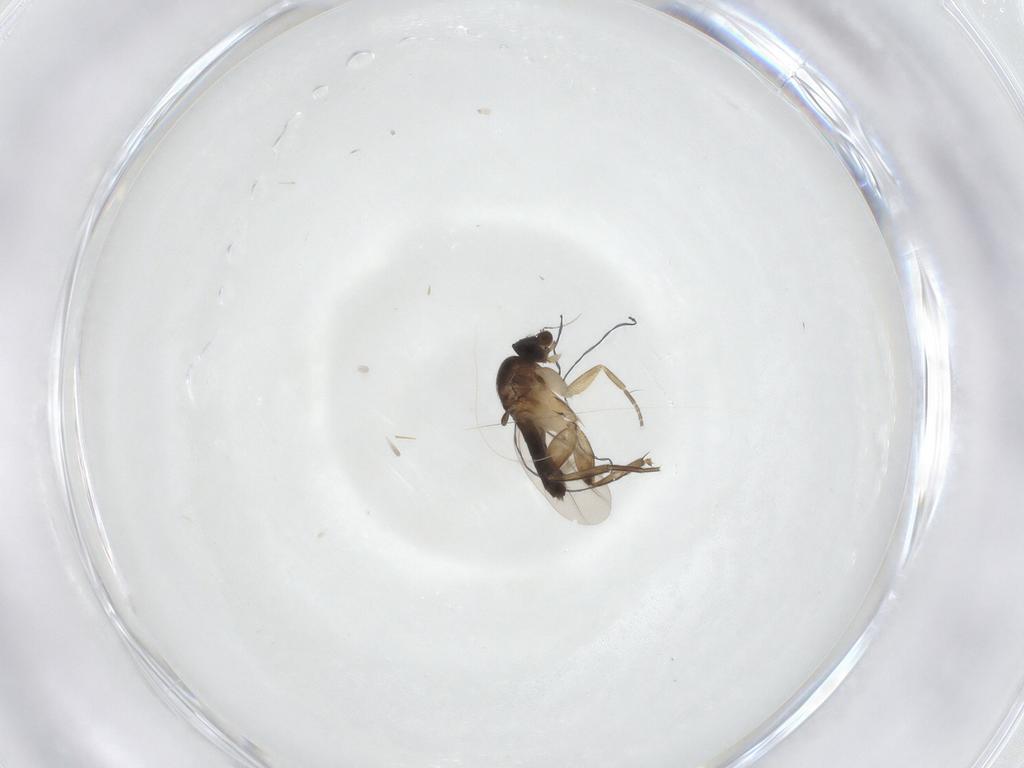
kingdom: Animalia
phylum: Arthropoda
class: Insecta
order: Diptera
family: Phoridae
